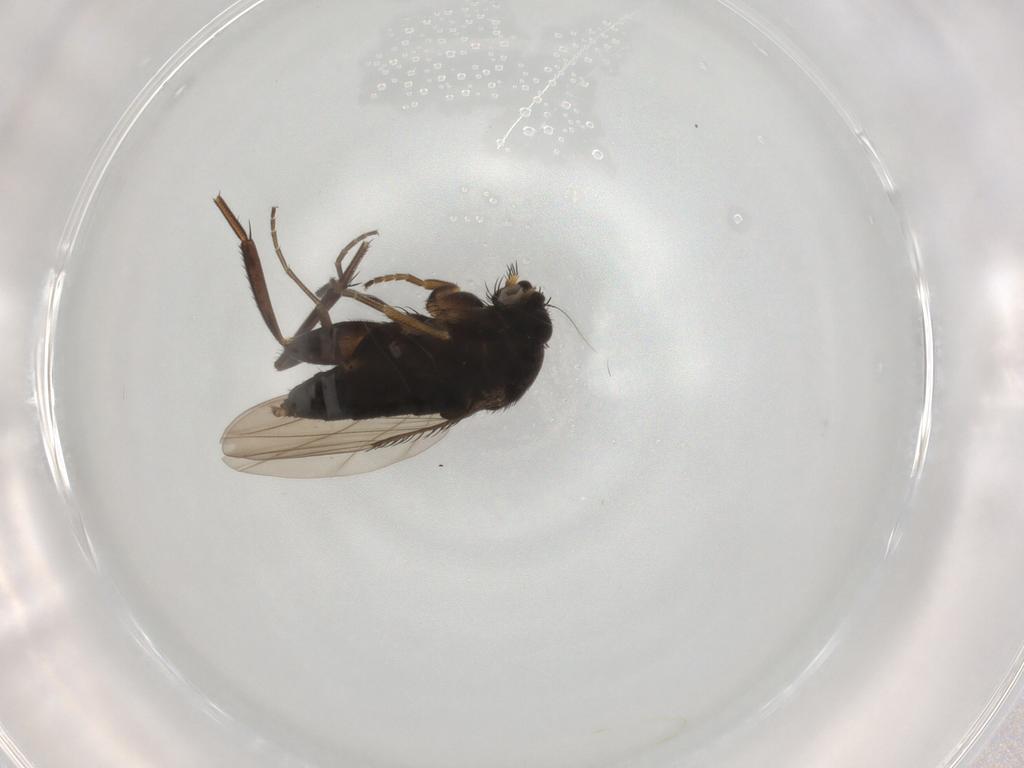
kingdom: Animalia
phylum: Arthropoda
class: Insecta
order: Diptera
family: Phoridae
